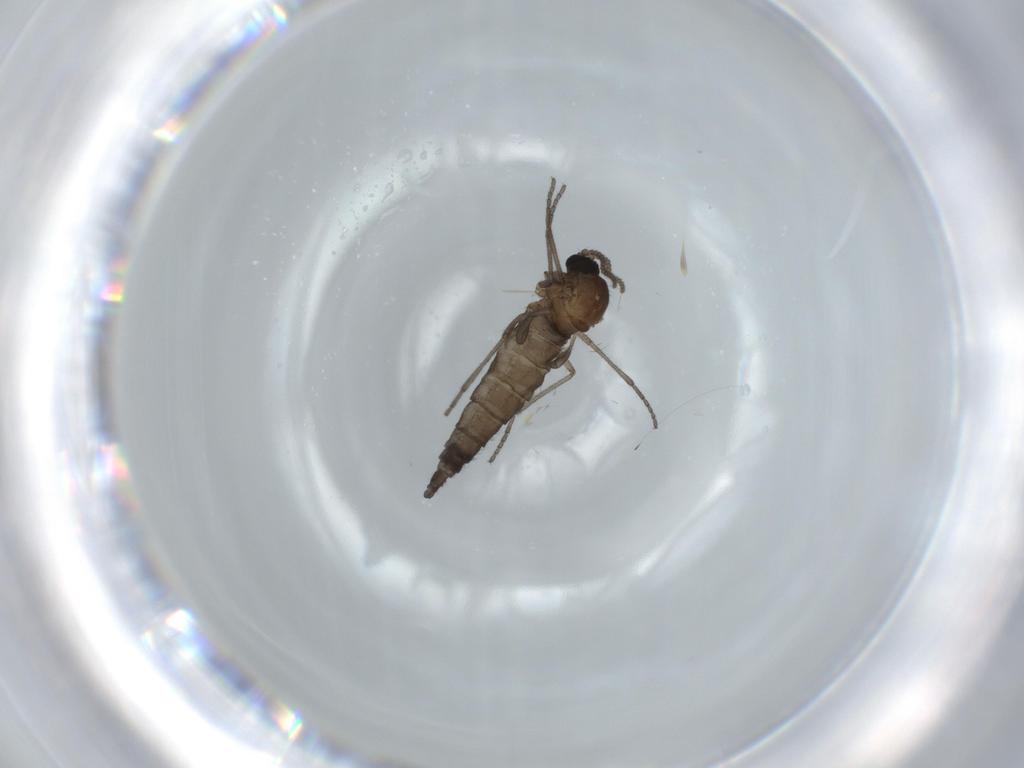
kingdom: Animalia
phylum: Arthropoda
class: Insecta
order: Diptera
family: Sciaridae
